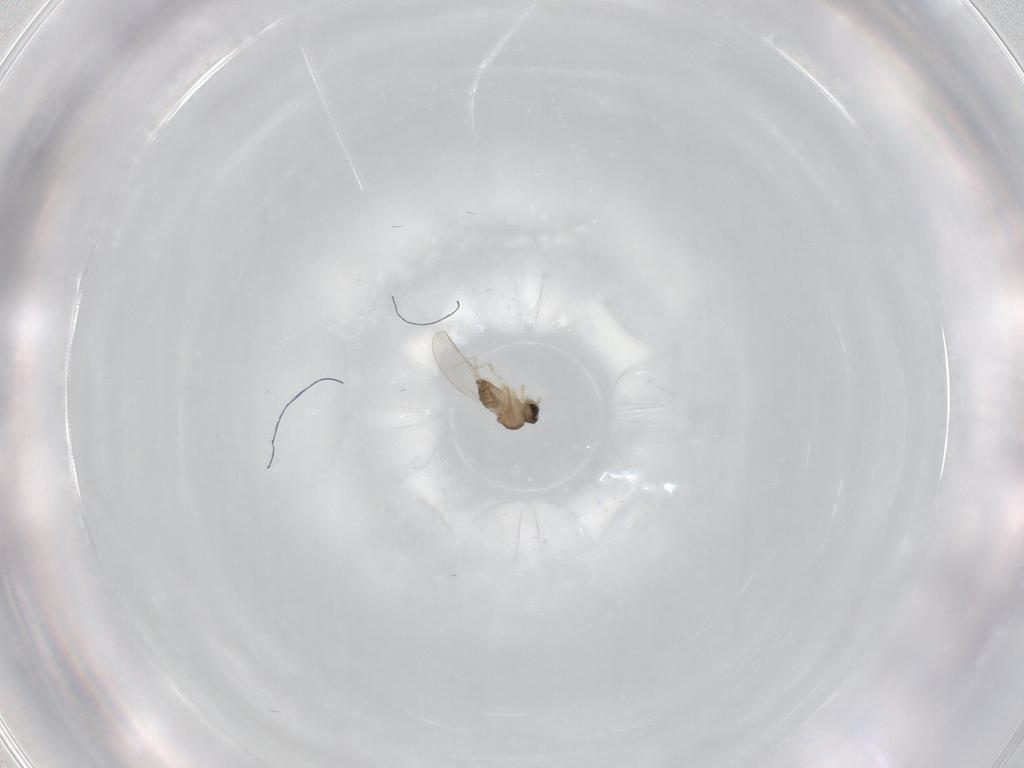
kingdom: Animalia
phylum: Arthropoda
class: Insecta
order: Diptera
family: Cecidomyiidae
